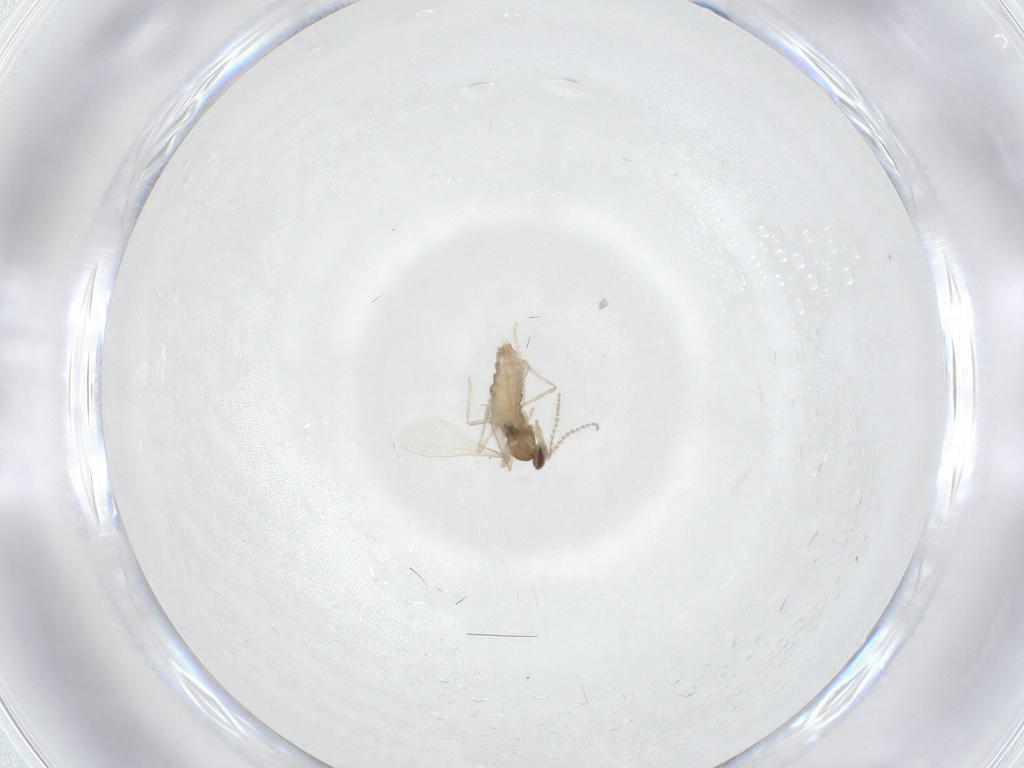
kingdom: Animalia
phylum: Arthropoda
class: Insecta
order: Diptera
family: Cecidomyiidae
